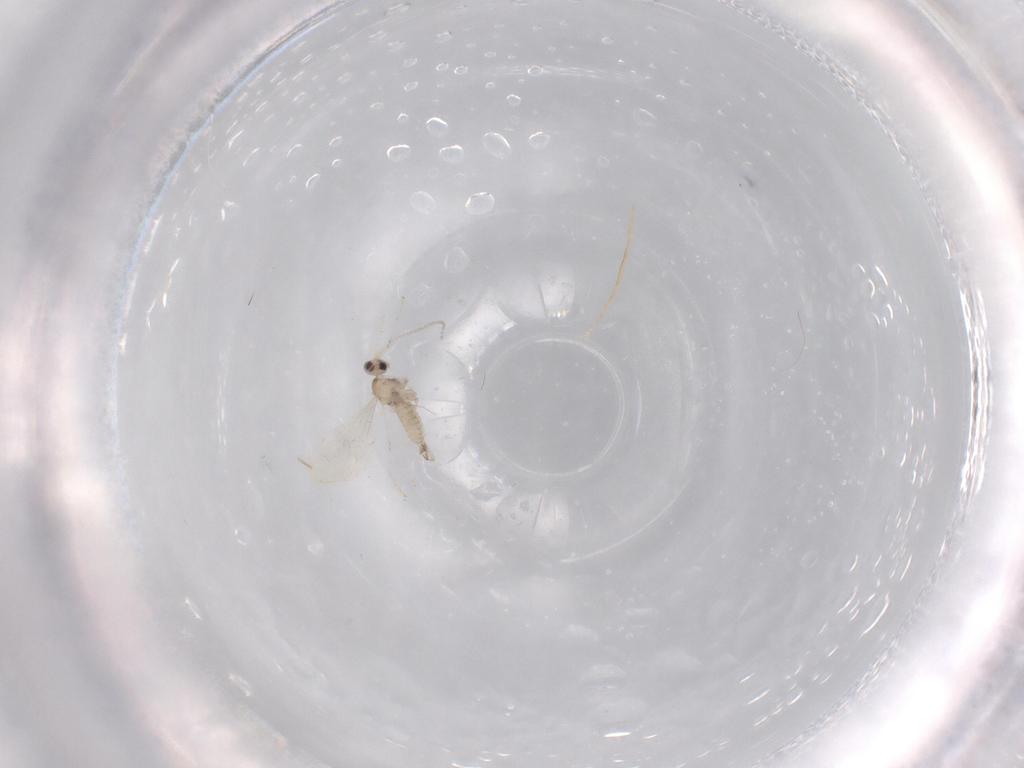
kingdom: Animalia
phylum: Arthropoda
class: Insecta
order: Diptera
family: Cecidomyiidae
